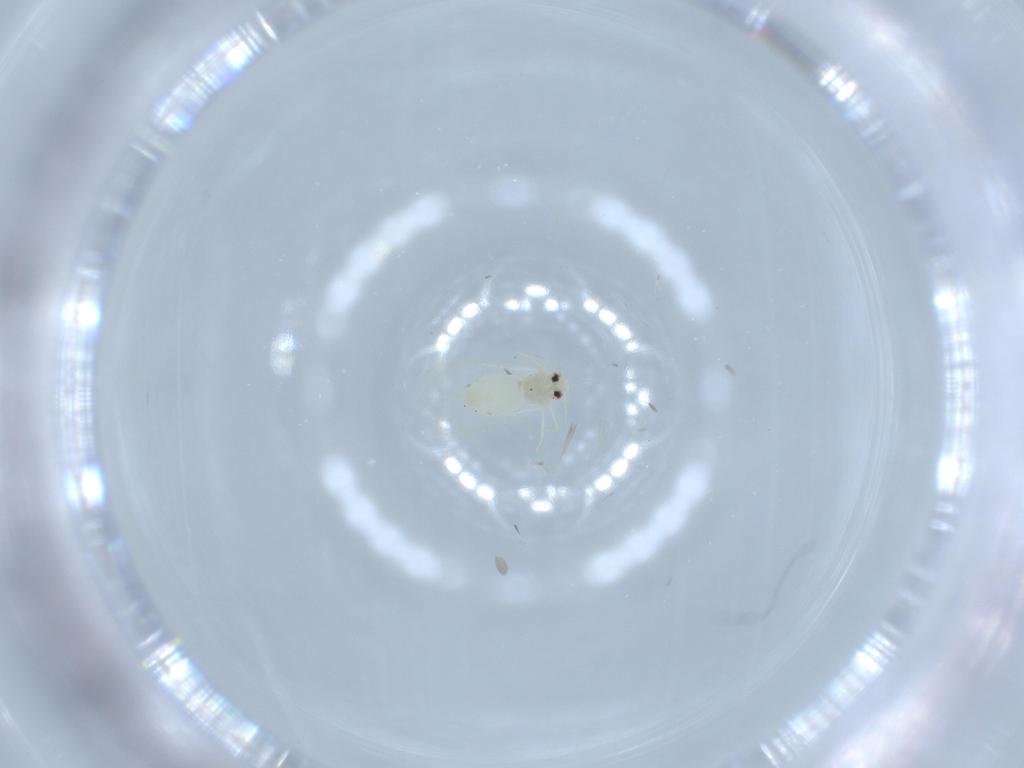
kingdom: Animalia
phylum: Arthropoda
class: Insecta
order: Hemiptera
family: Aleyrodidae
